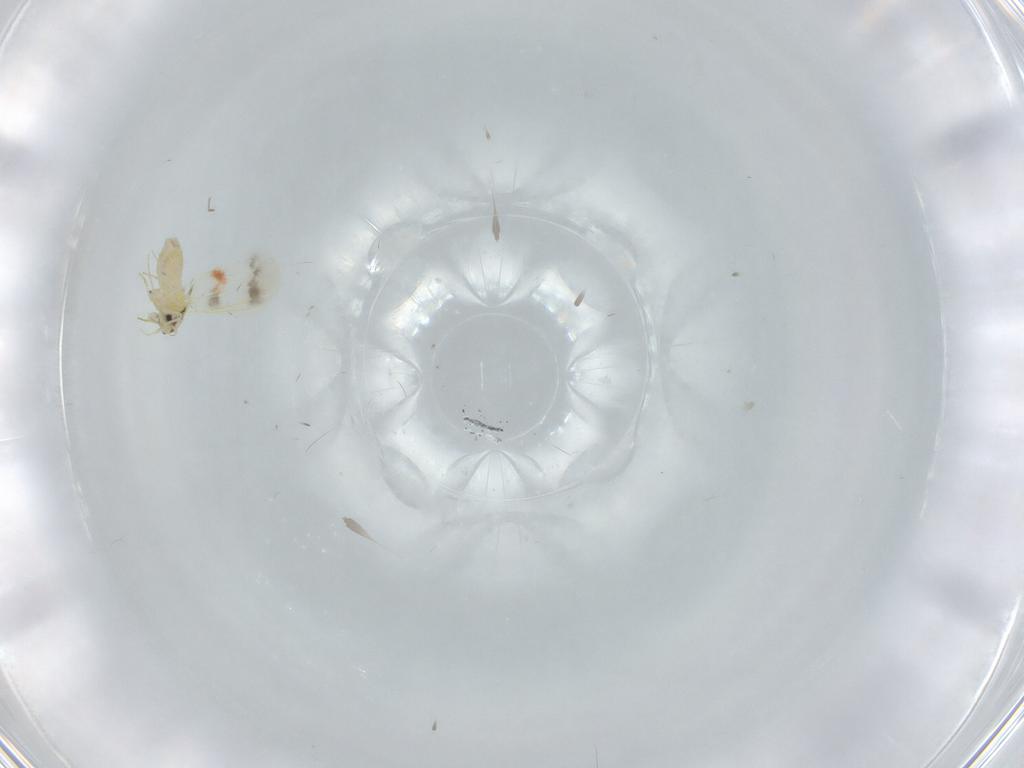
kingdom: Animalia
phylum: Arthropoda
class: Insecta
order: Hemiptera
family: Aleyrodidae
